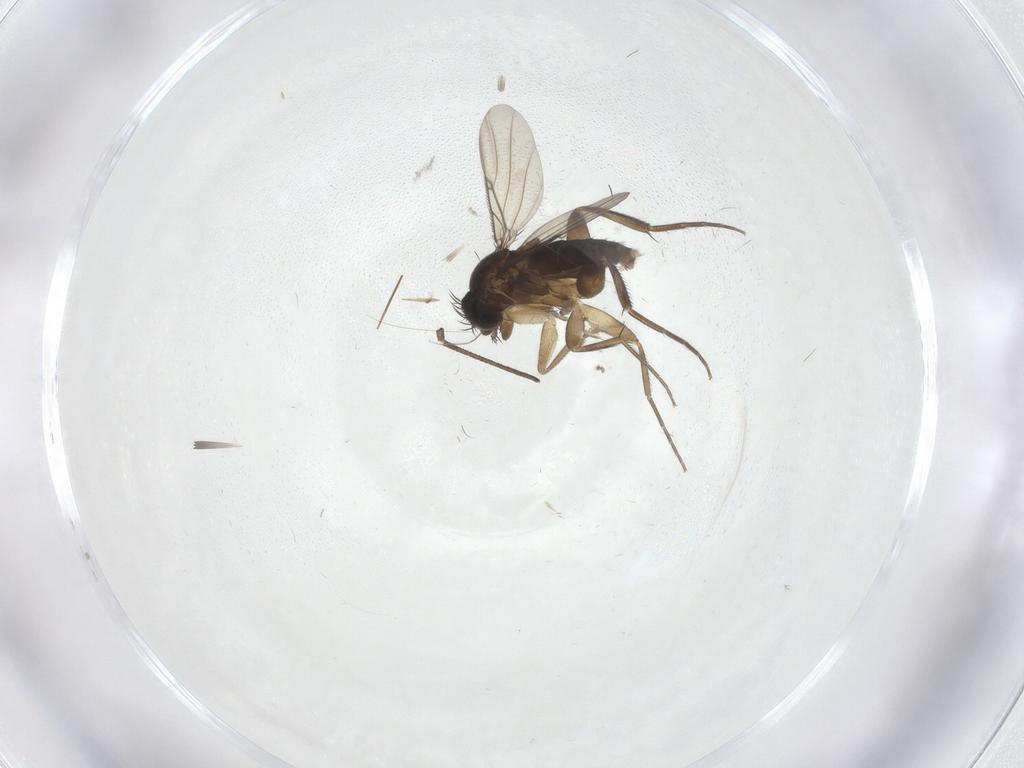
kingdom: Animalia
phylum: Arthropoda
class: Insecta
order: Diptera
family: Phoridae
